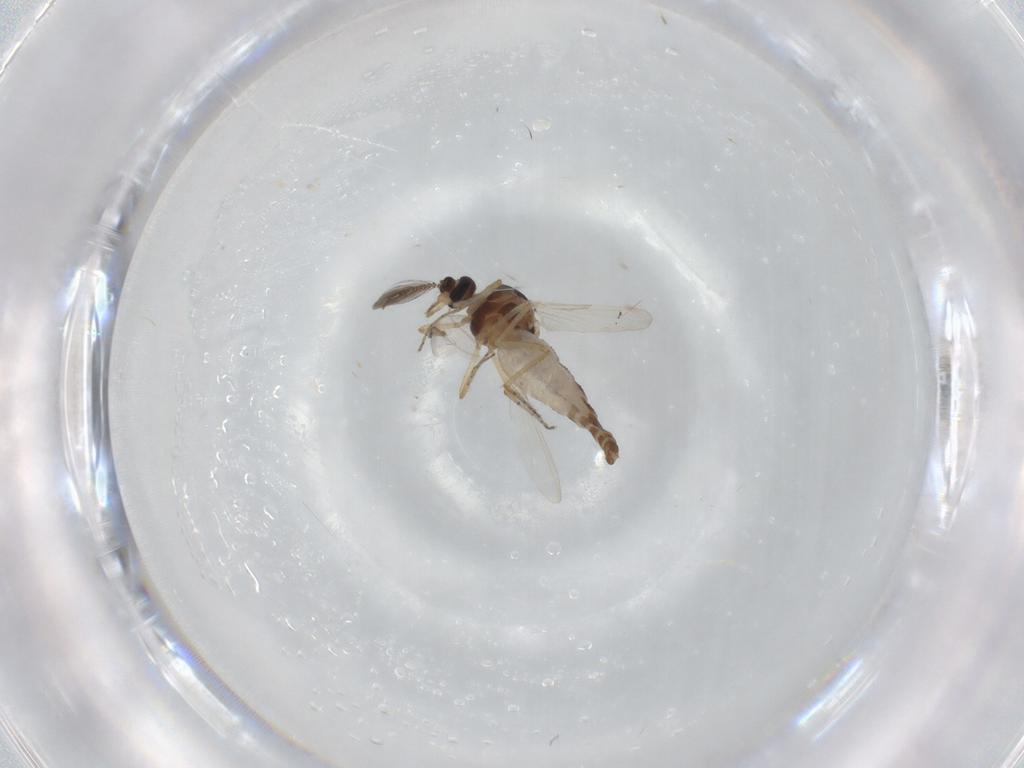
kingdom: Animalia
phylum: Arthropoda
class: Insecta
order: Diptera
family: Ceratopogonidae
